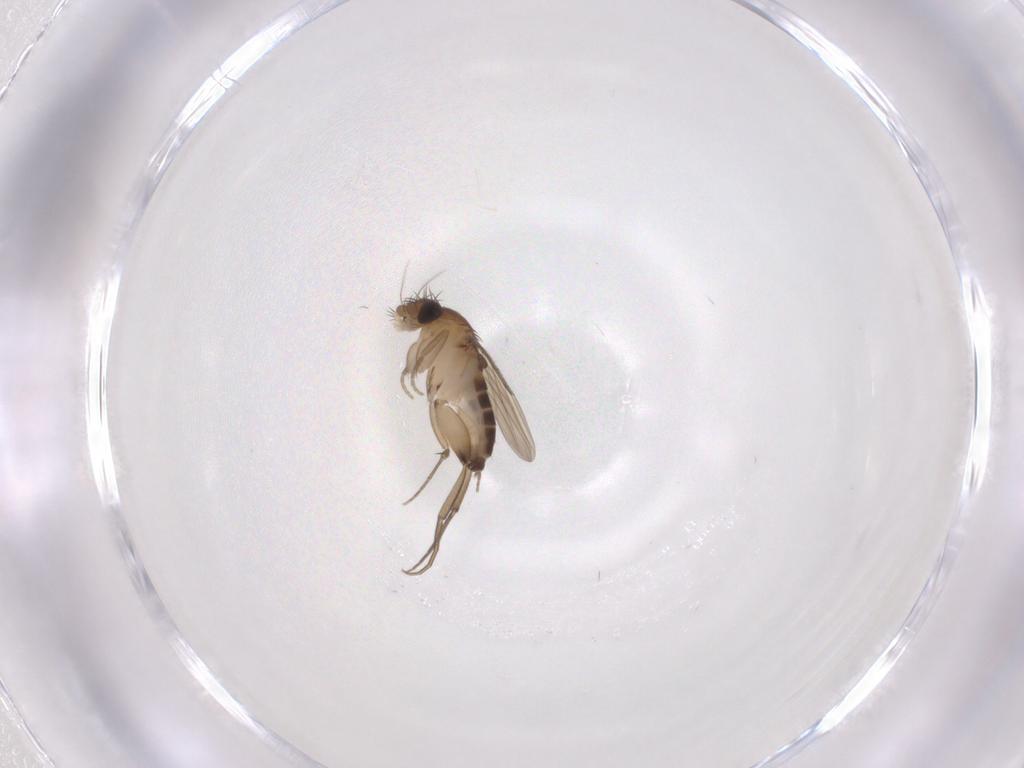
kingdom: Animalia
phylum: Arthropoda
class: Insecta
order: Diptera
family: Phoridae
